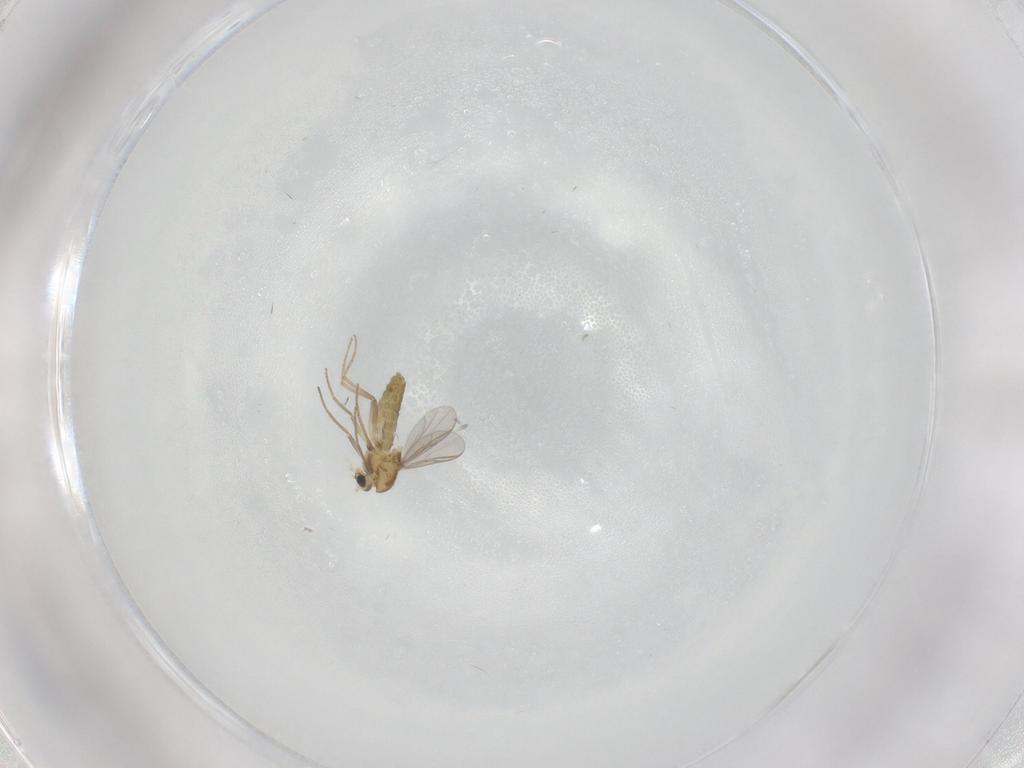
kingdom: Animalia
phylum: Arthropoda
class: Insecta
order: Diptera
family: Chironomidae
